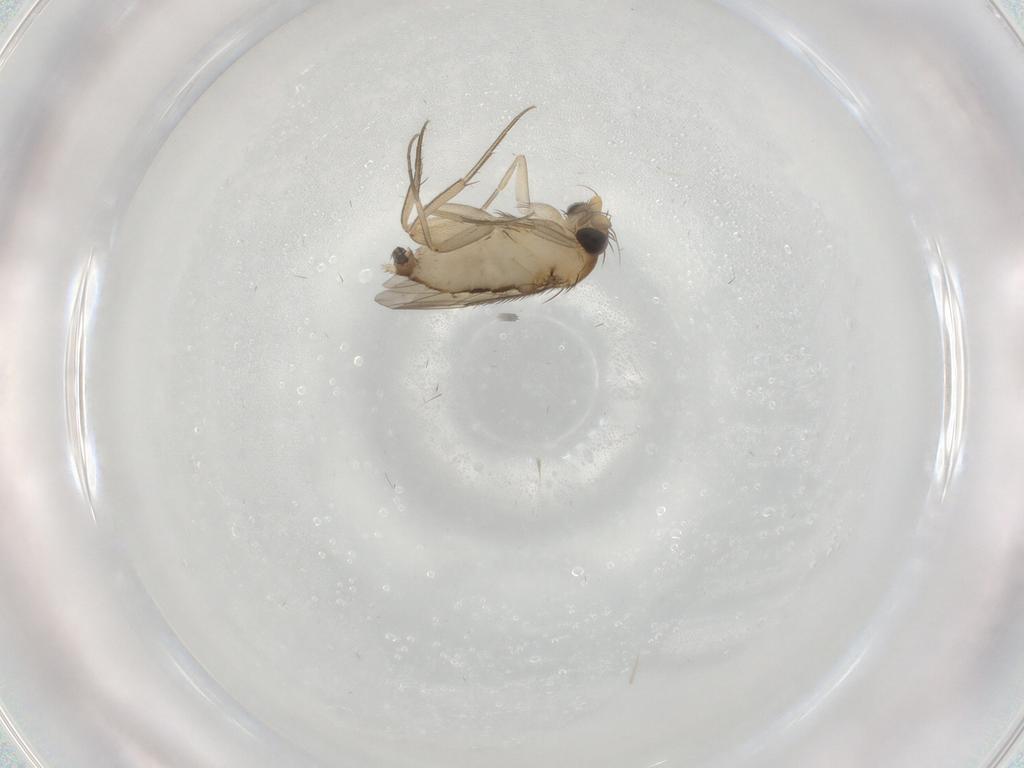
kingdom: Animalia
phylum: Arthropoda
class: Insecta
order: Diptera
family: Phoridae
